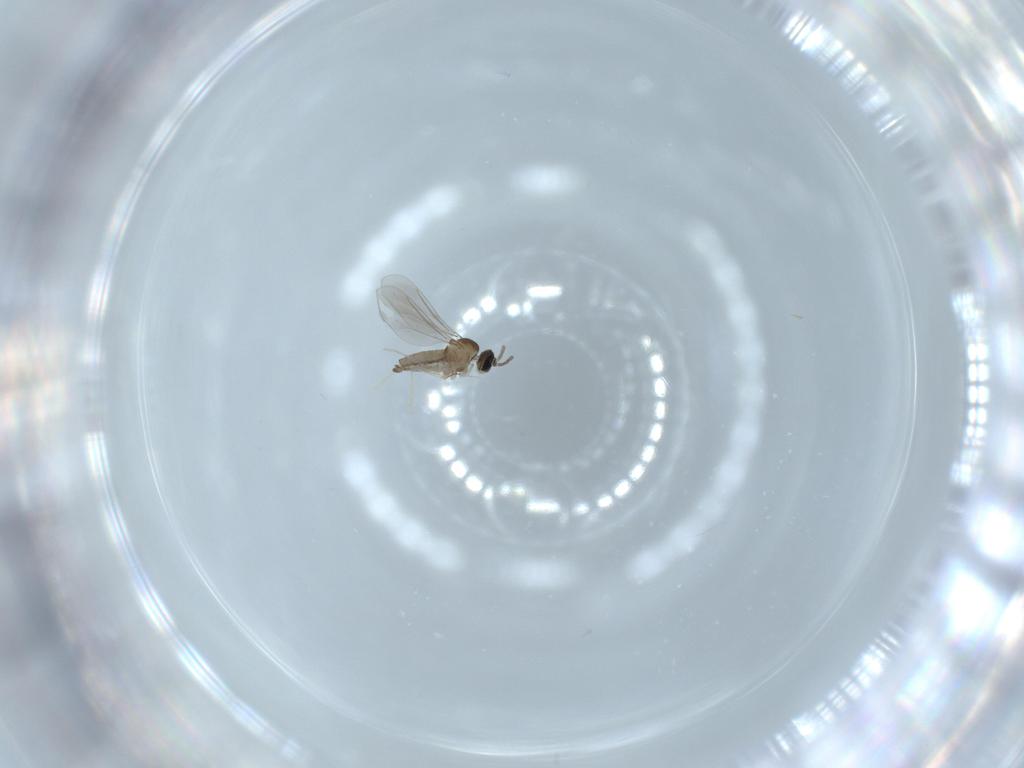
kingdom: Animalia
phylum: Arthropoda
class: Insecta
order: Diptera
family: Sciaridae
